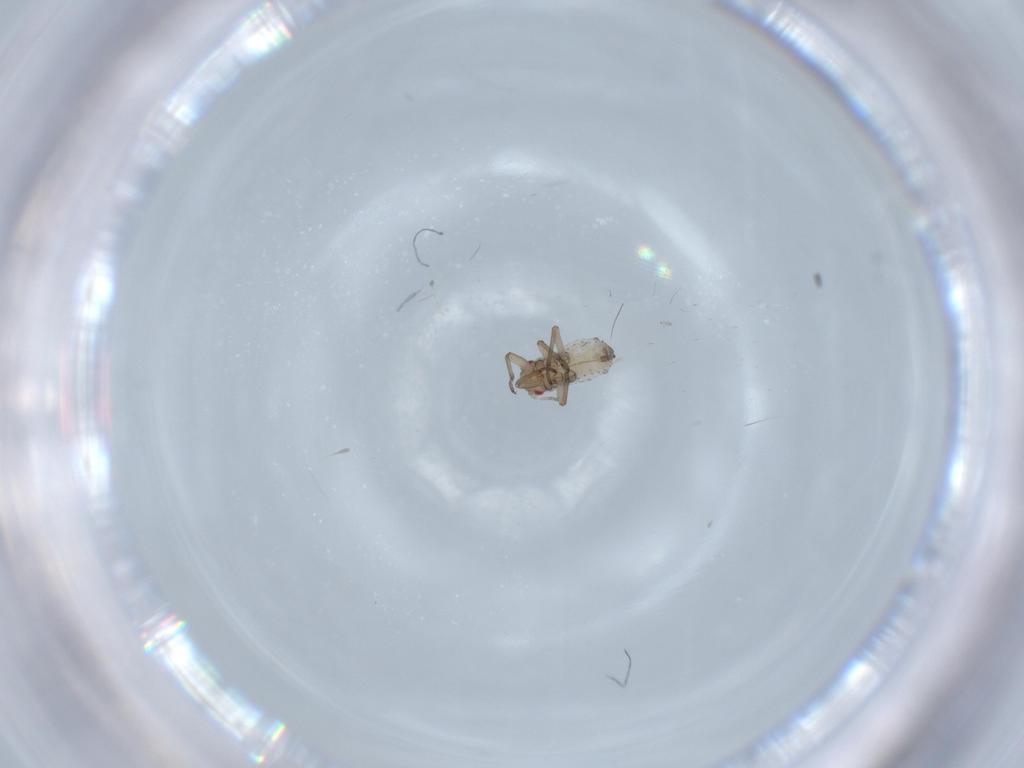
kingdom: Animalia
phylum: Arthropoda
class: Insecta
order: Hemiptera
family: Aphididae
